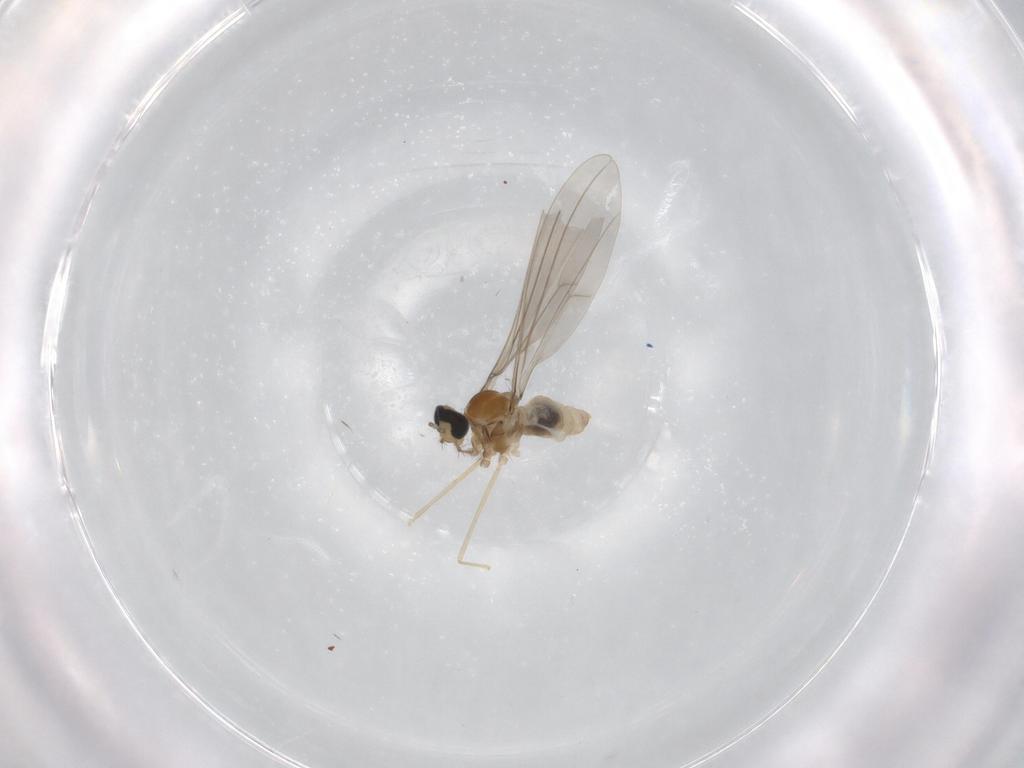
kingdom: Animalia
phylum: Arthropoda
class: Insecta
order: Diptera
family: Cecidomyiidae
